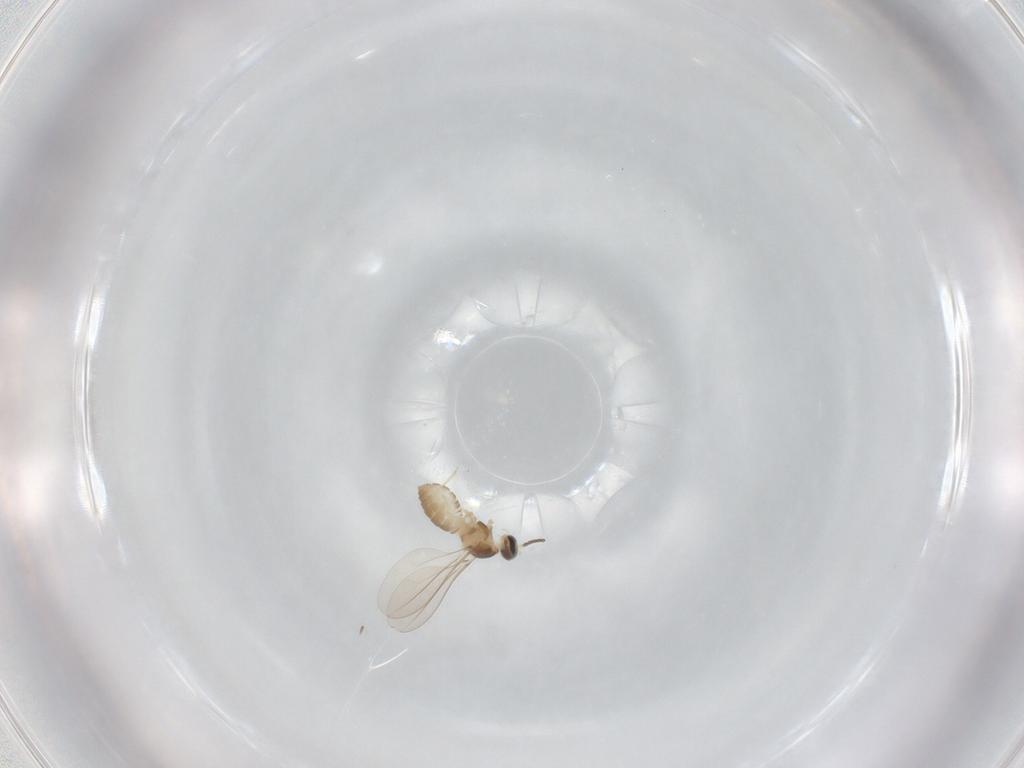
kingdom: Animalia
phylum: Arthropoda
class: Insecta
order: Diptera
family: Cecidomyiidae
